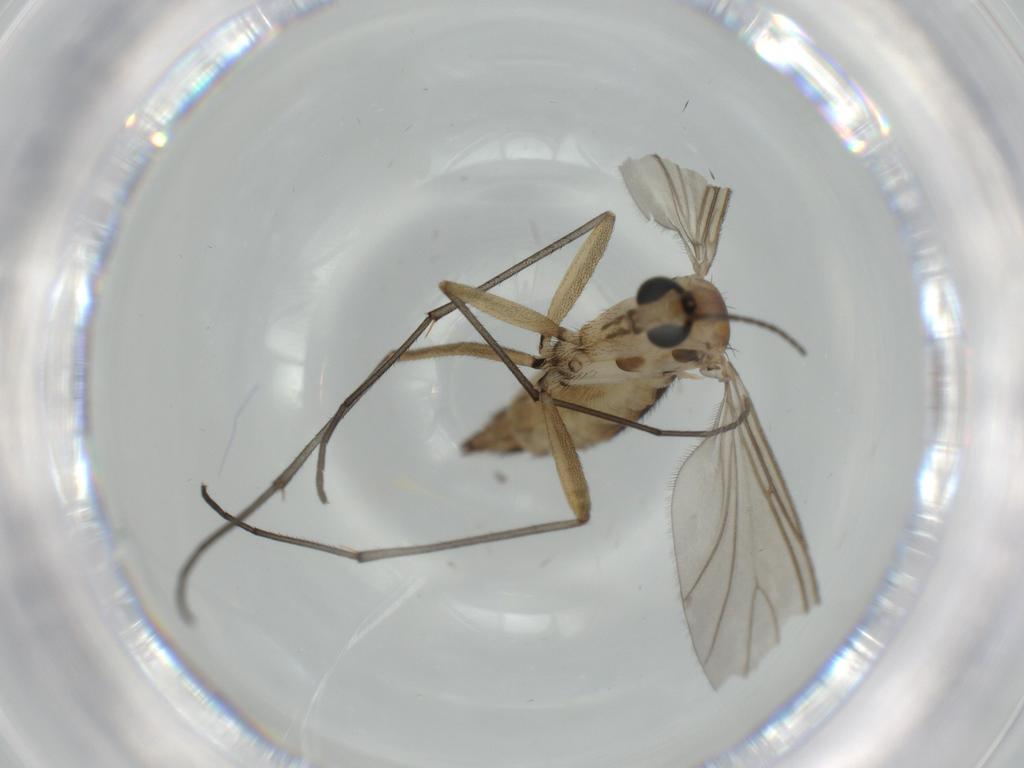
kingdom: Animalia
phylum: Arthropoda
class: Insecta
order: Diptera
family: Sciaridae
